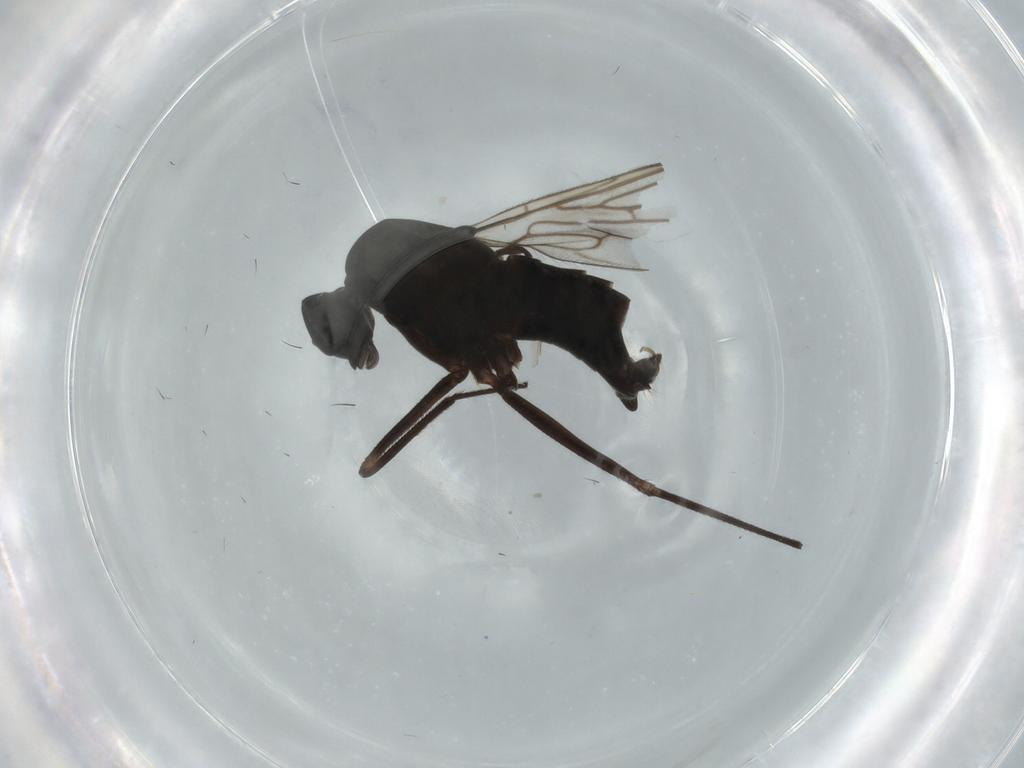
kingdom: Animalia
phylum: Arthropoda
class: Insecta
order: Diptera
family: Empididae
